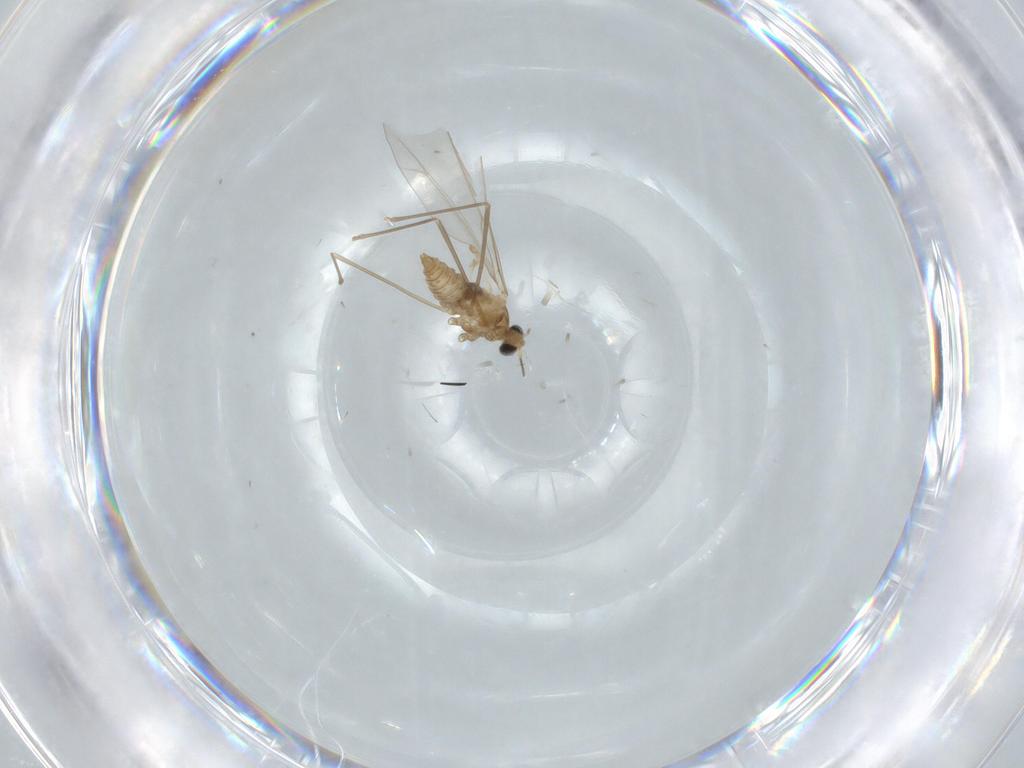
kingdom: Animalia
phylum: Arthropoda
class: Insecta
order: Diptera
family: Cecidomyiidae
